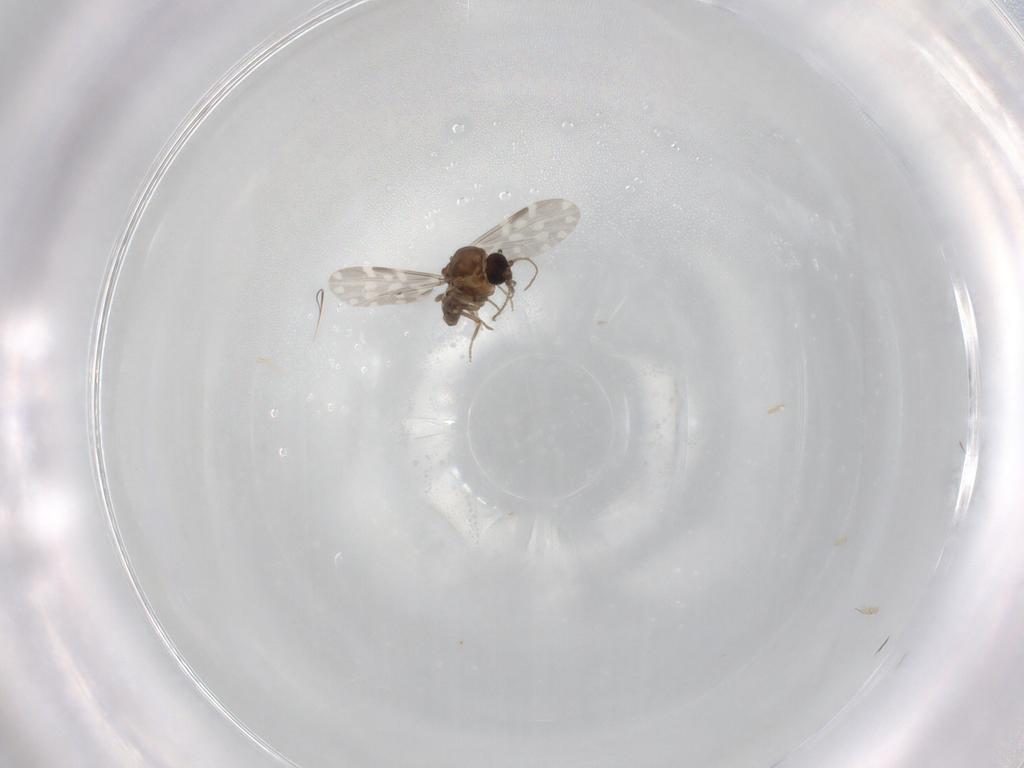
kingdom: Animalia
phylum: Arthropoda
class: Insecta
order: Diptera
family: Ceratopogonidae
